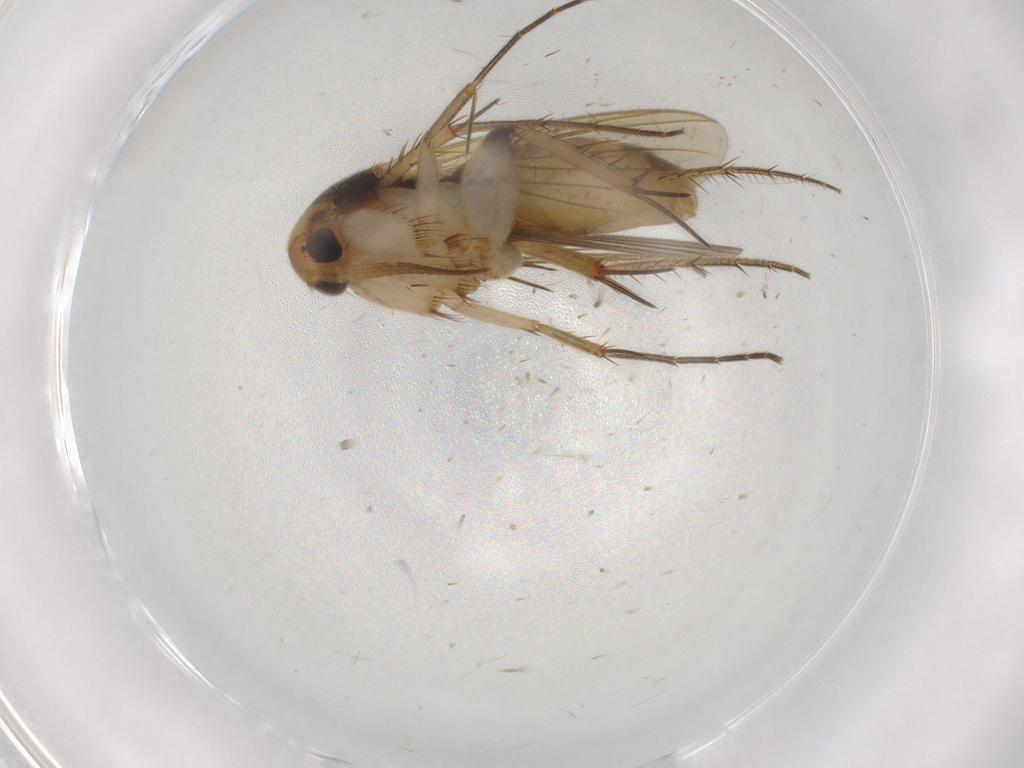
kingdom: Animalia
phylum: Arthropoda
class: Insecta
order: Diptera
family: Mycetophilidae
